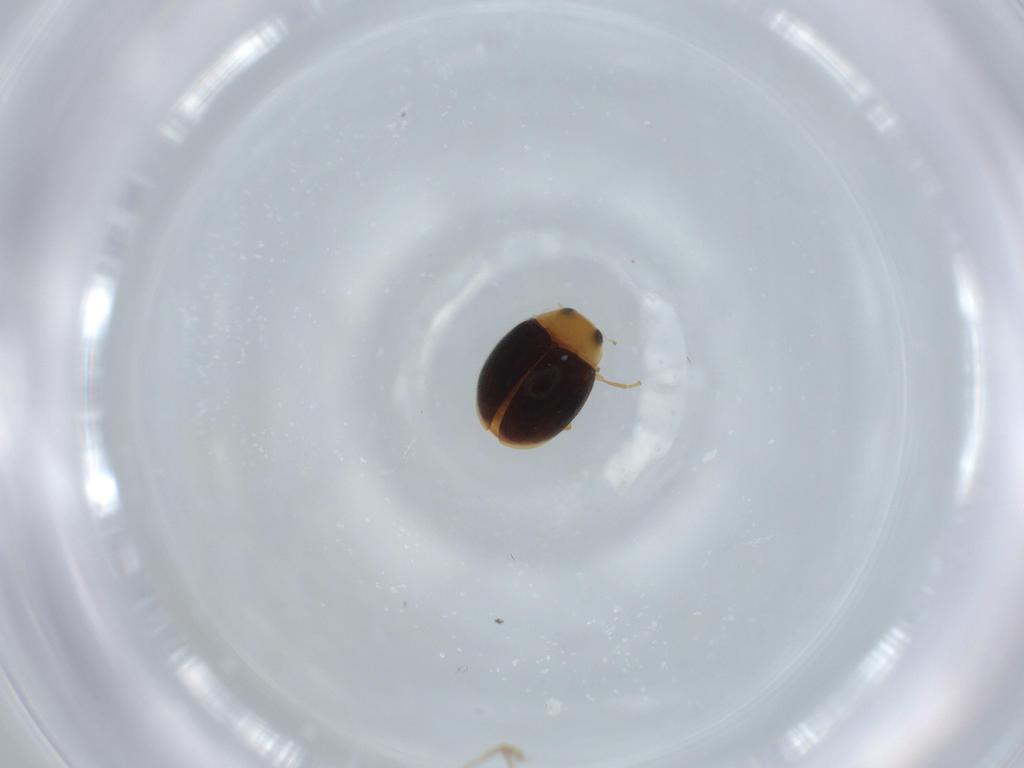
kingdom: Animalia
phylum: Arthropoda
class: Insecta
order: Coleoptera
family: Coccinellidae
